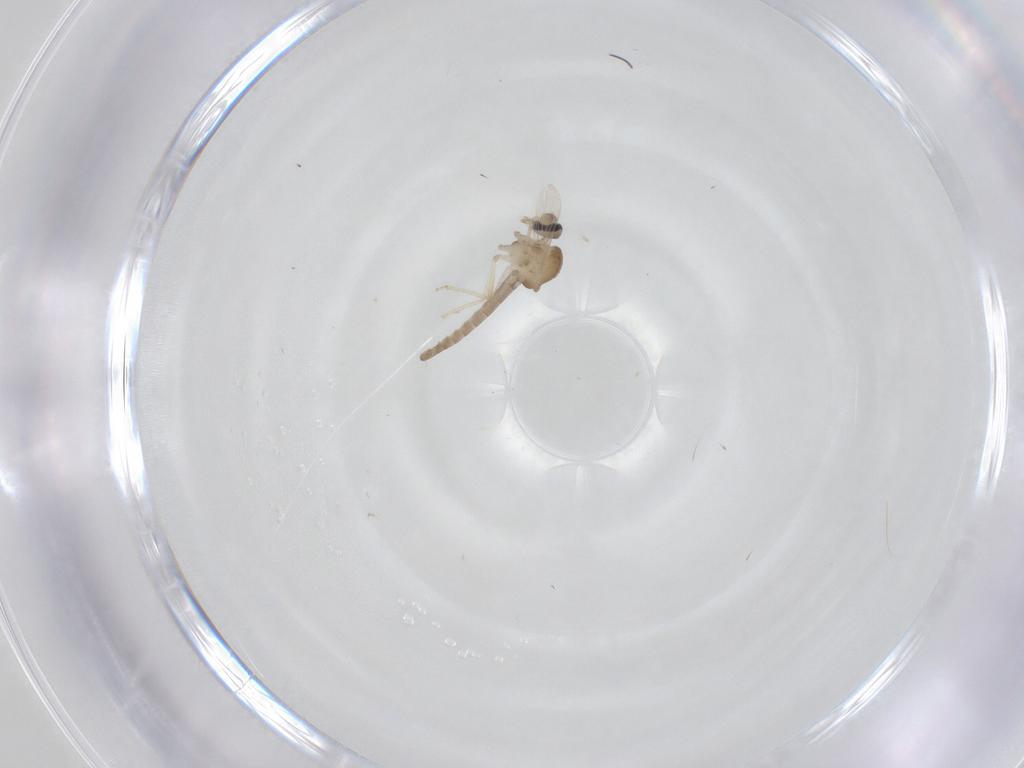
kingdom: Animalia
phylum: Arthropoda
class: Insecta
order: Diptera
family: Ceratopogonidae
